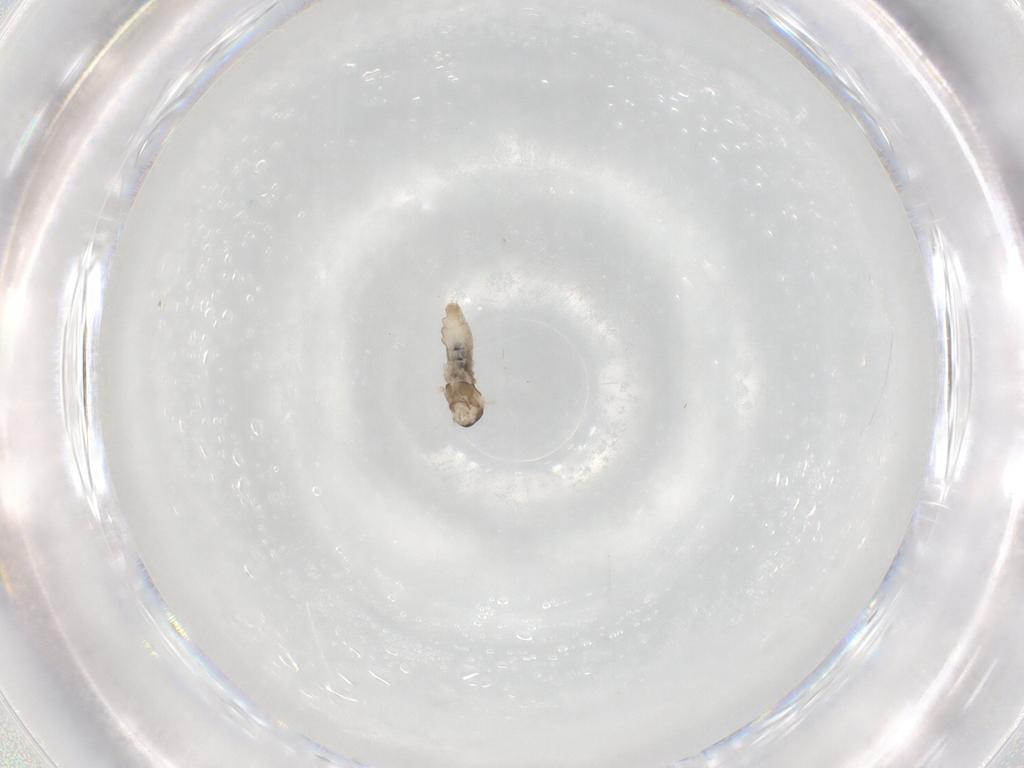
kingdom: Animalia
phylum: Arthropoda
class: Insecta
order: Diptera
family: Cecidomyiidae
